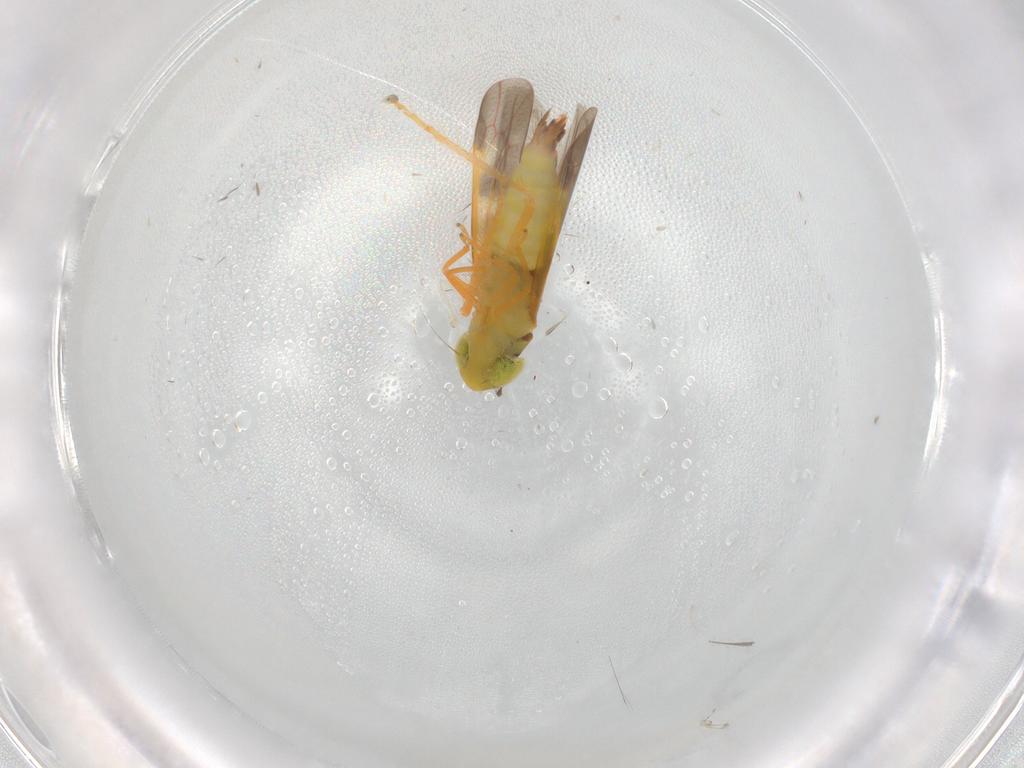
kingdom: Animalia
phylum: Arthropoda
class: Insecta
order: Hemiptera
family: Cicadellidae
